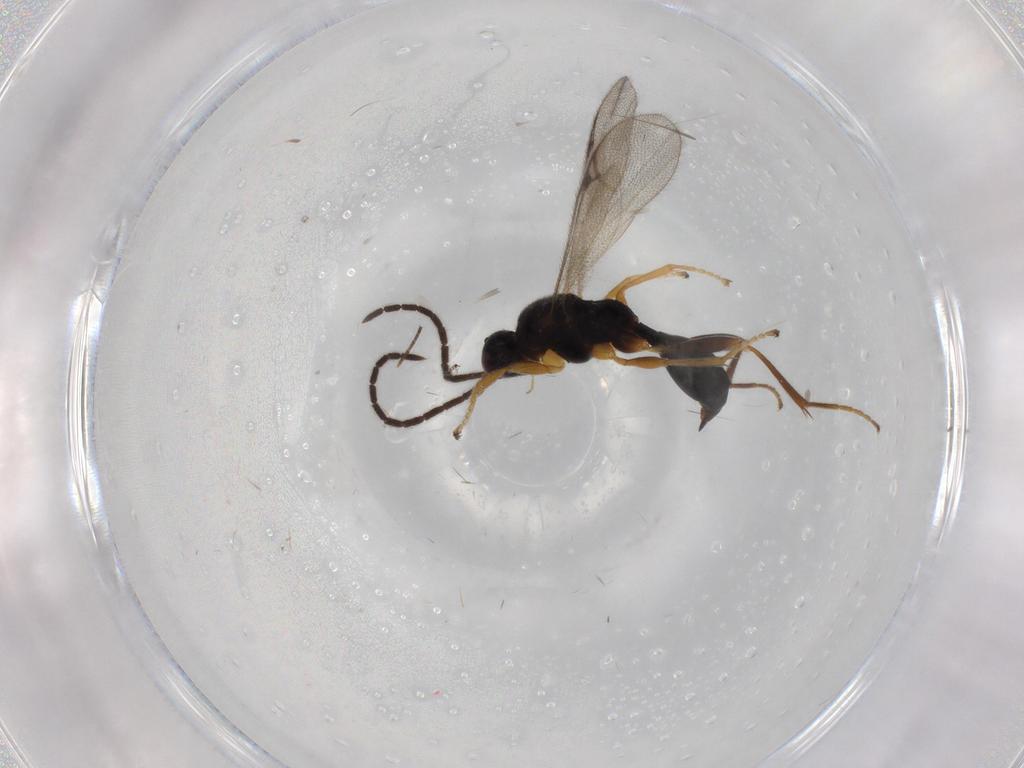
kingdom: Animalia
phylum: Arthropoda
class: Insecta
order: Hymenoptera
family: Proctotrupidae
